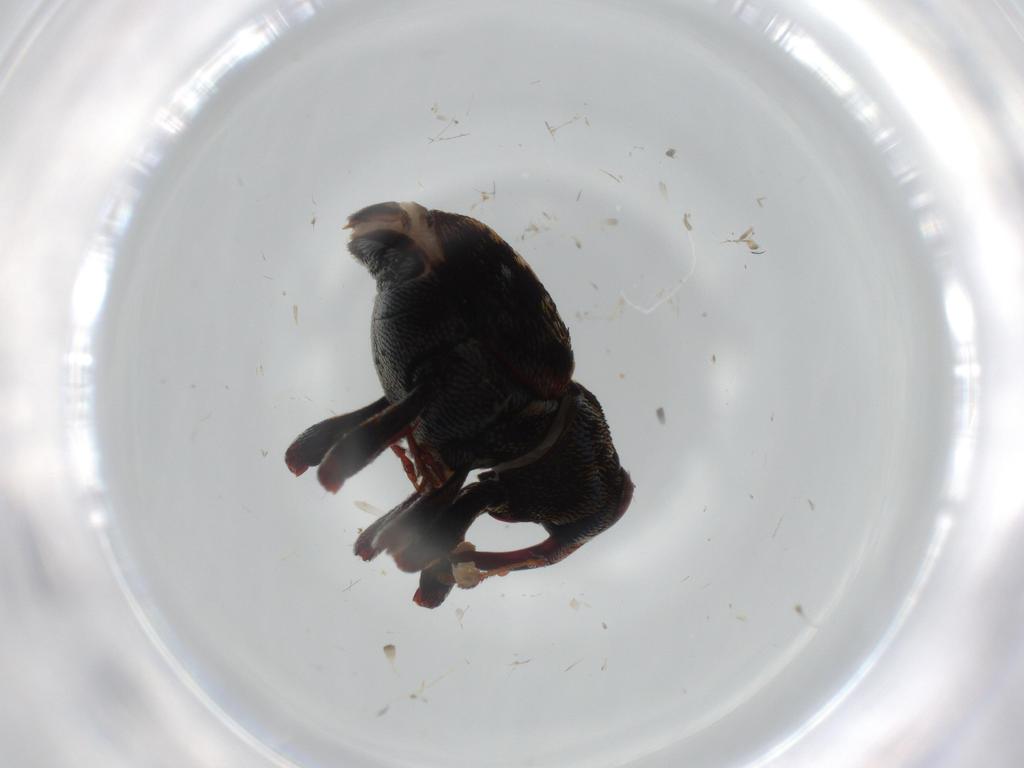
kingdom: Animalia
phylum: Arthropoda
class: Insecta
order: Coleoptera
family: Curculionidae
